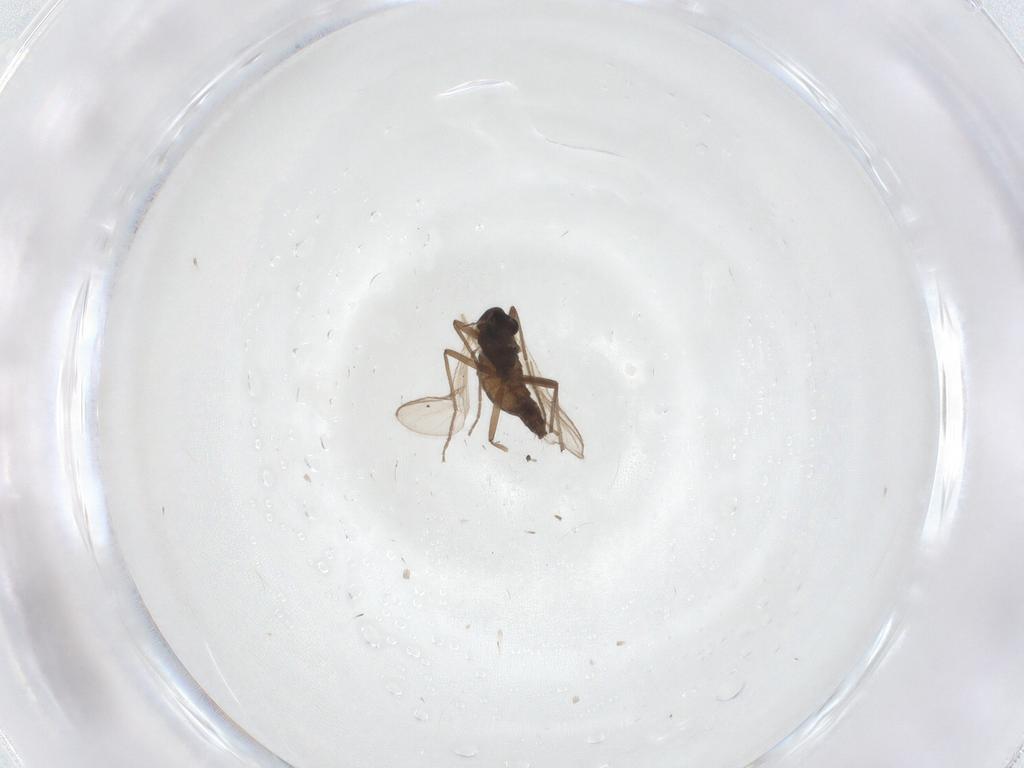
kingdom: Animalia
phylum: Arthropoda
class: Insecta
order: Diptera
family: Chironomidae
